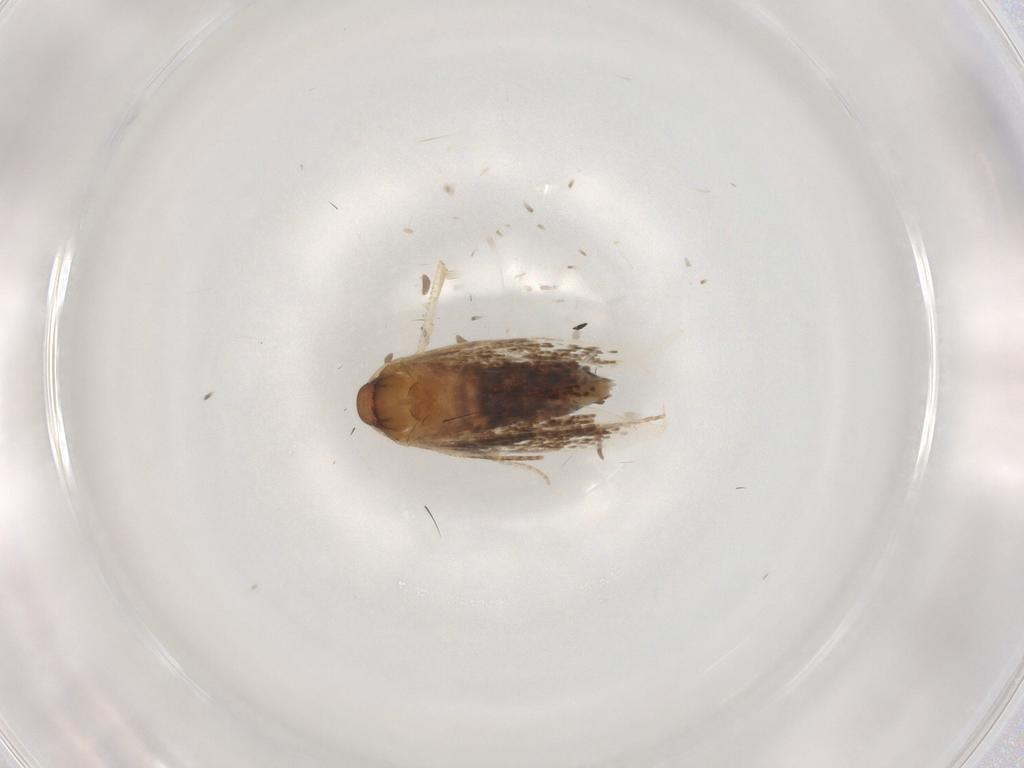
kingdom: Animalia
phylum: Arthropoda
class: Insecta
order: Lepidoptera
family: Cosmopterigidae
